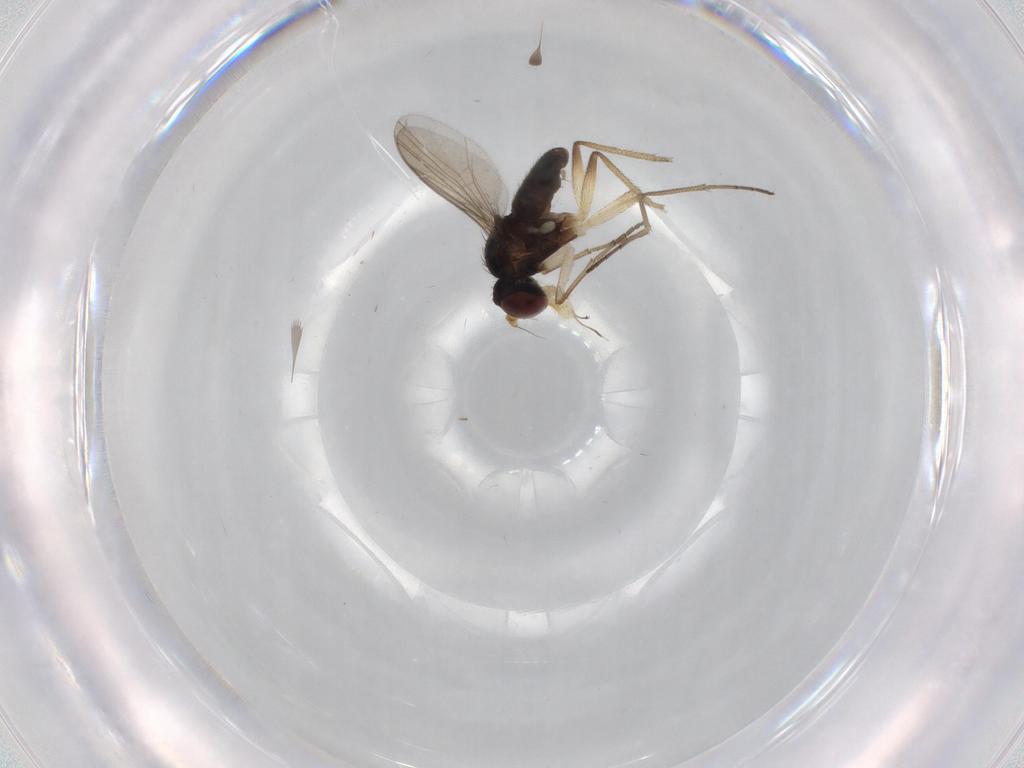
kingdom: Animalia
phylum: Arthropoda
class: Insecta
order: Diptera
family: Dolichopodidae
